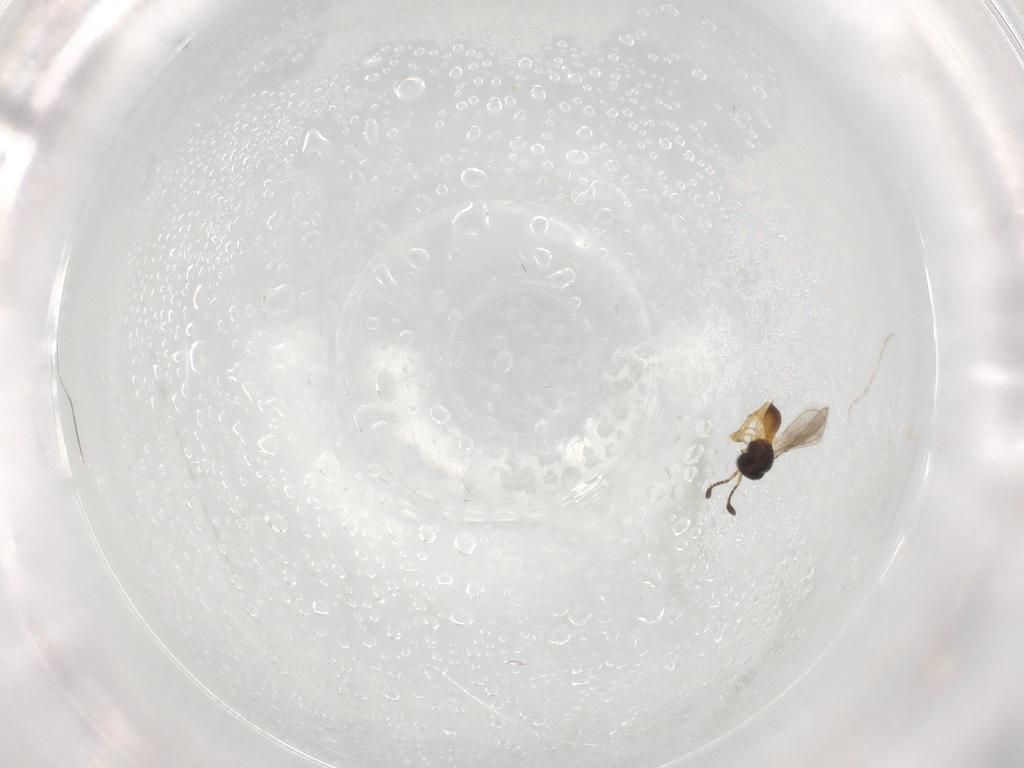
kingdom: Animalia
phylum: Arthropoda
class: Insecta
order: Hymenoptera
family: Scelionidae
